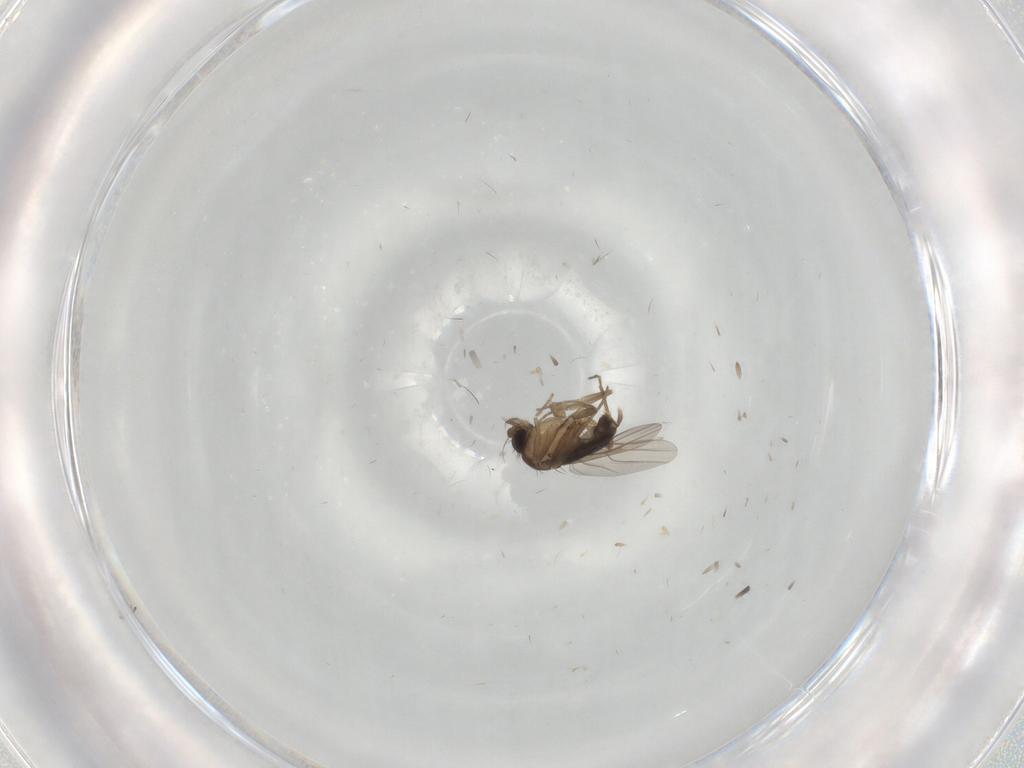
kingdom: Animalia
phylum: Arthropoda
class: Insecta
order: Diptera
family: Phoridae
